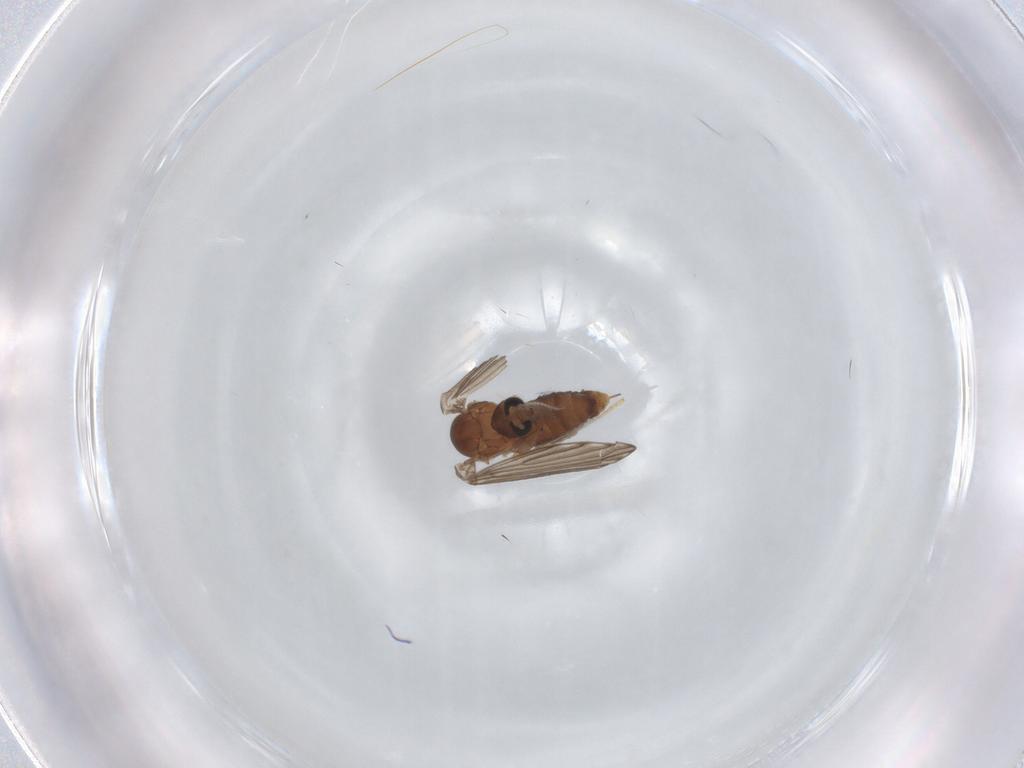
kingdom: Animalia
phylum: Arthropoda
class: Insecta
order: Diptera
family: Psychodidae
